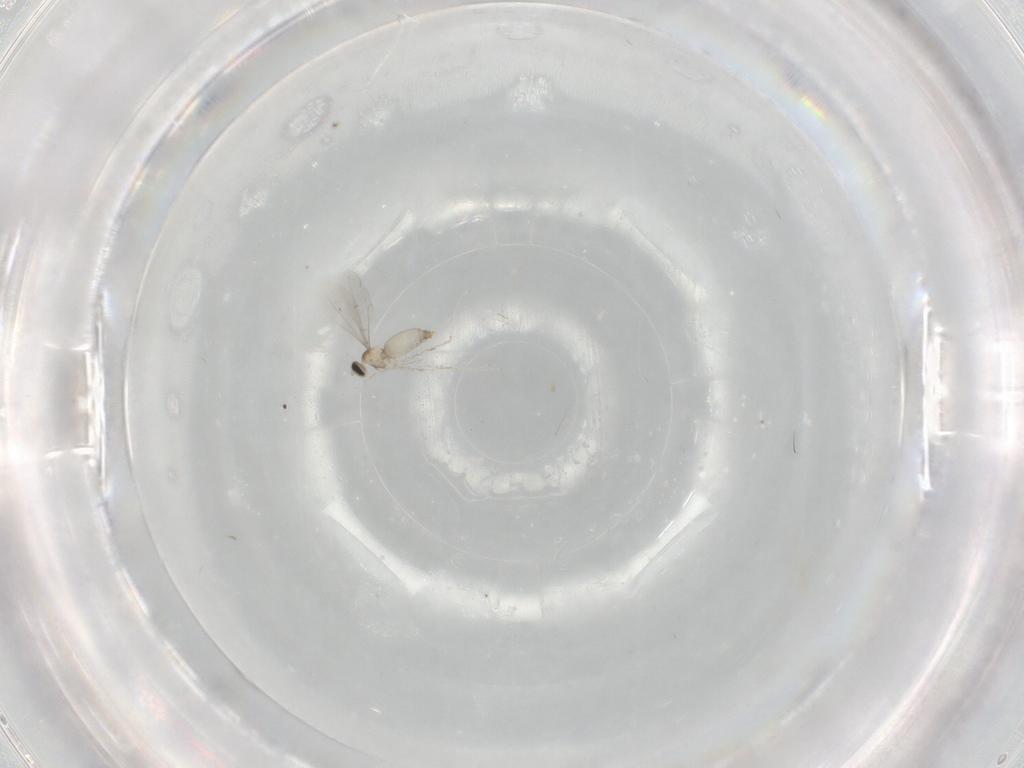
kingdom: Animalia
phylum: Arthropoda
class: Insecta
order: Diptera
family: Cecidomyiidae
